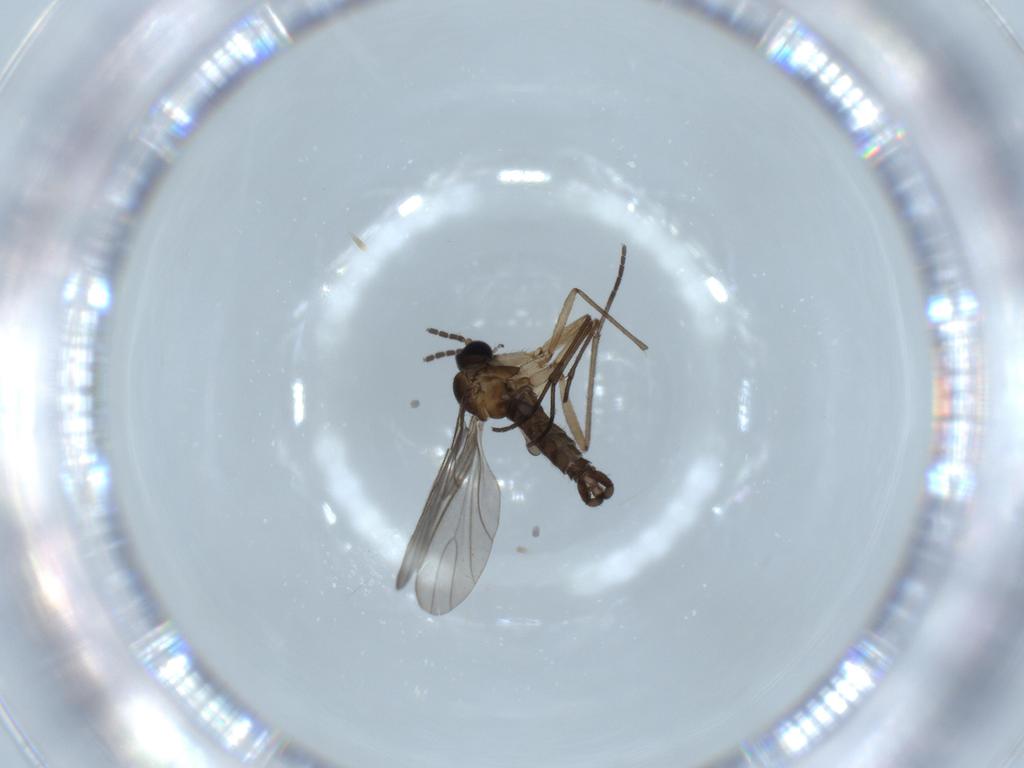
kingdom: Animalia
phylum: Arthropoda
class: Insecta
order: Diptera
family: Sciaridae
